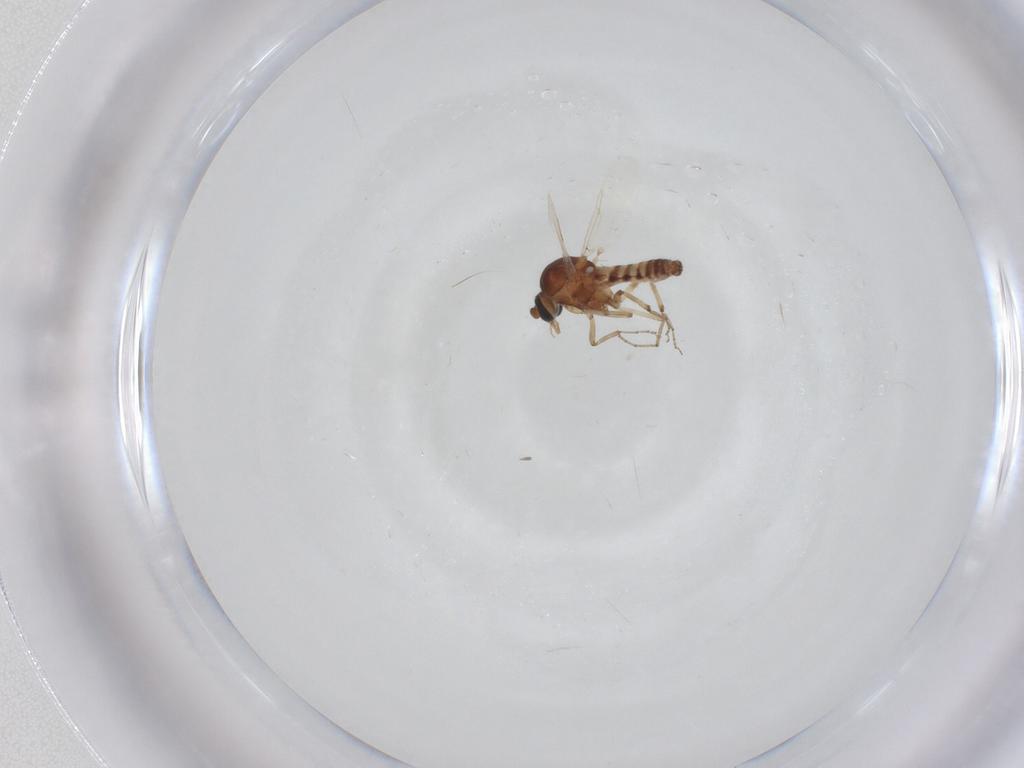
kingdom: Animalia
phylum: Arthropoda
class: Insecta
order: Diptera
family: Ceratopogonidae
